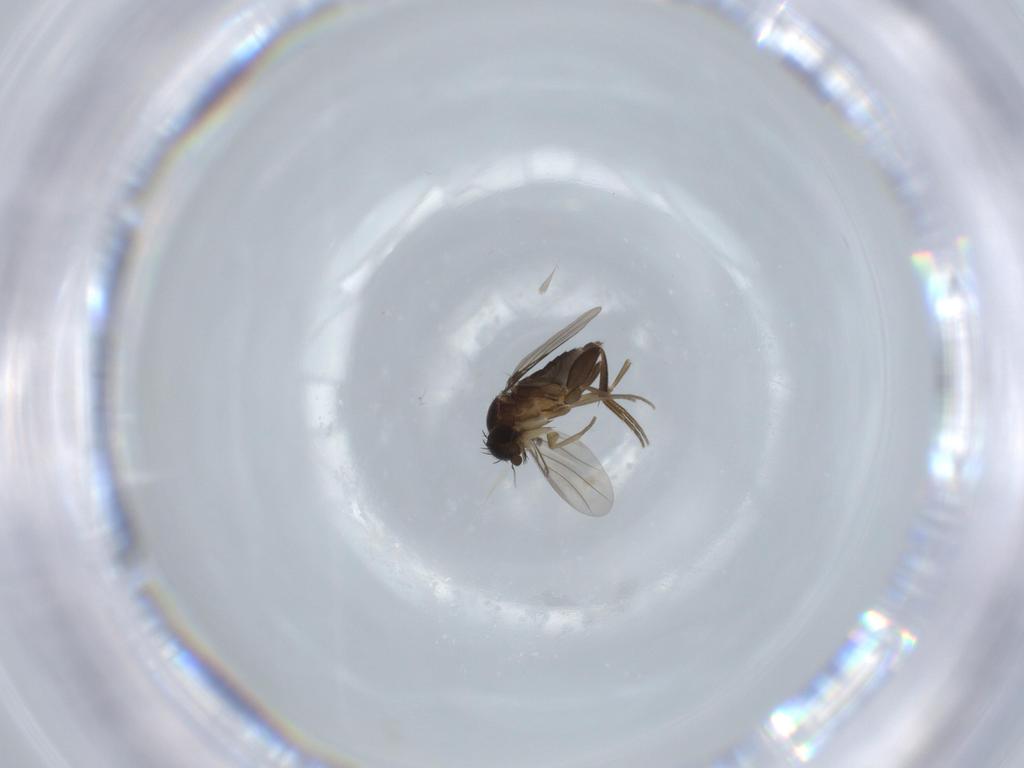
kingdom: Animalia
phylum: Arthropoda
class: Insecta
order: Diptera
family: Phoridae
